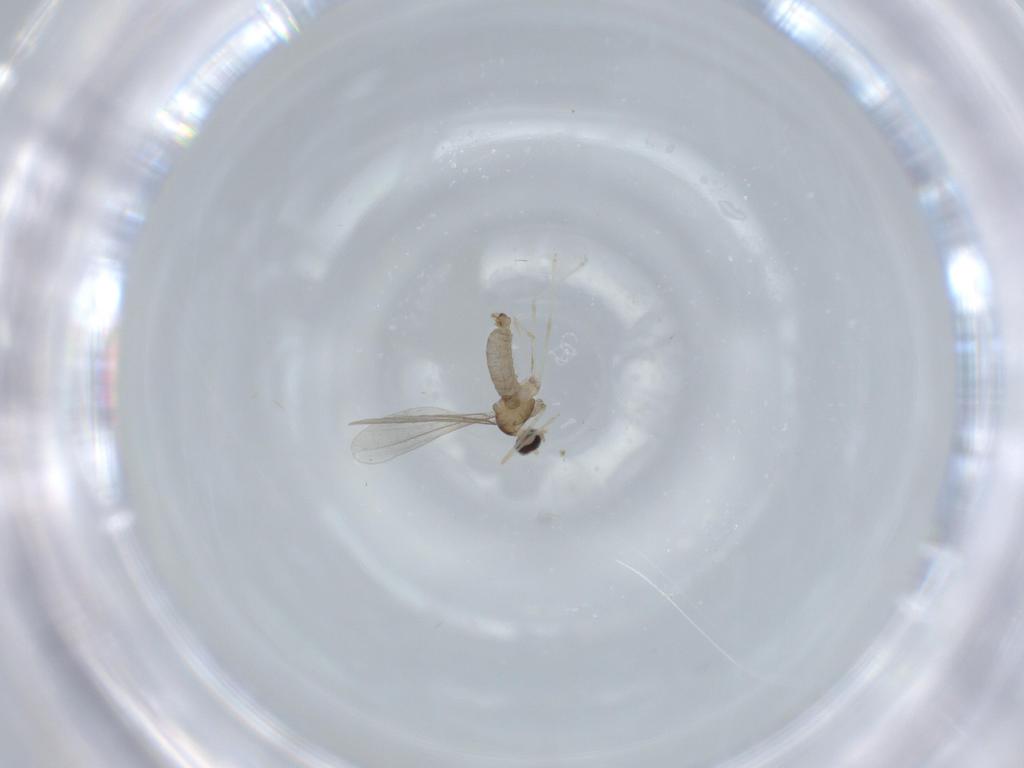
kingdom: Animalia
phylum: Arthropoda
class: Insecta
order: Diptera
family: Cecidomyiidae
